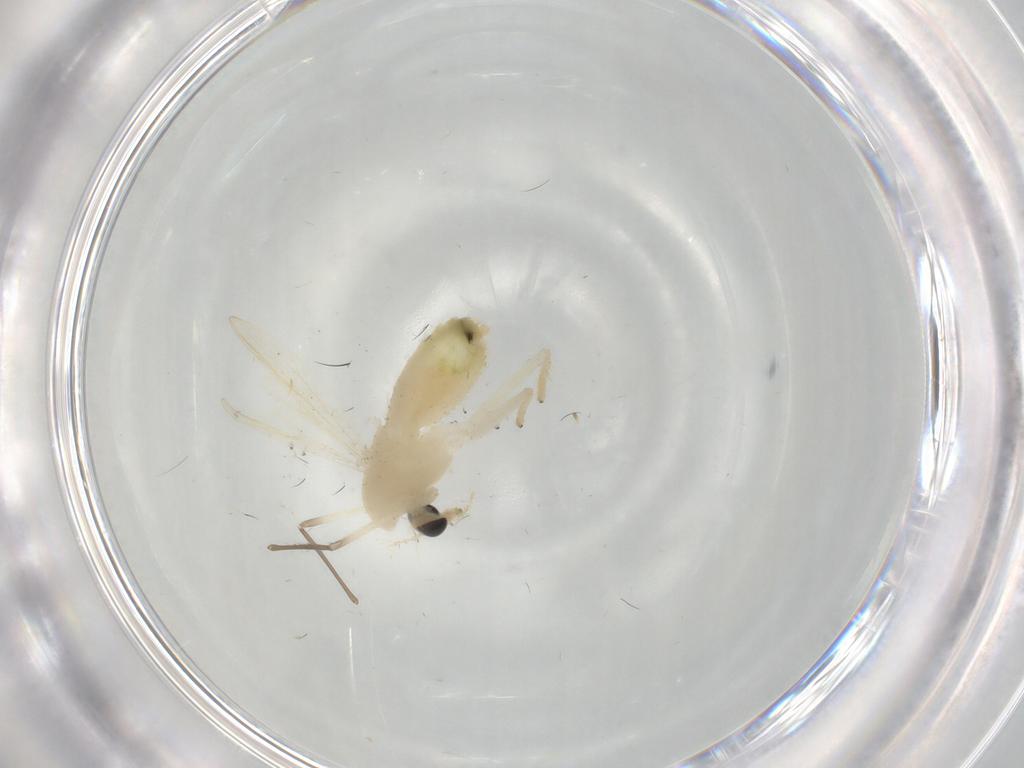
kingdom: Animalia
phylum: Arthropoda
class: Insecta
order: Diptera
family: Chironomidae
